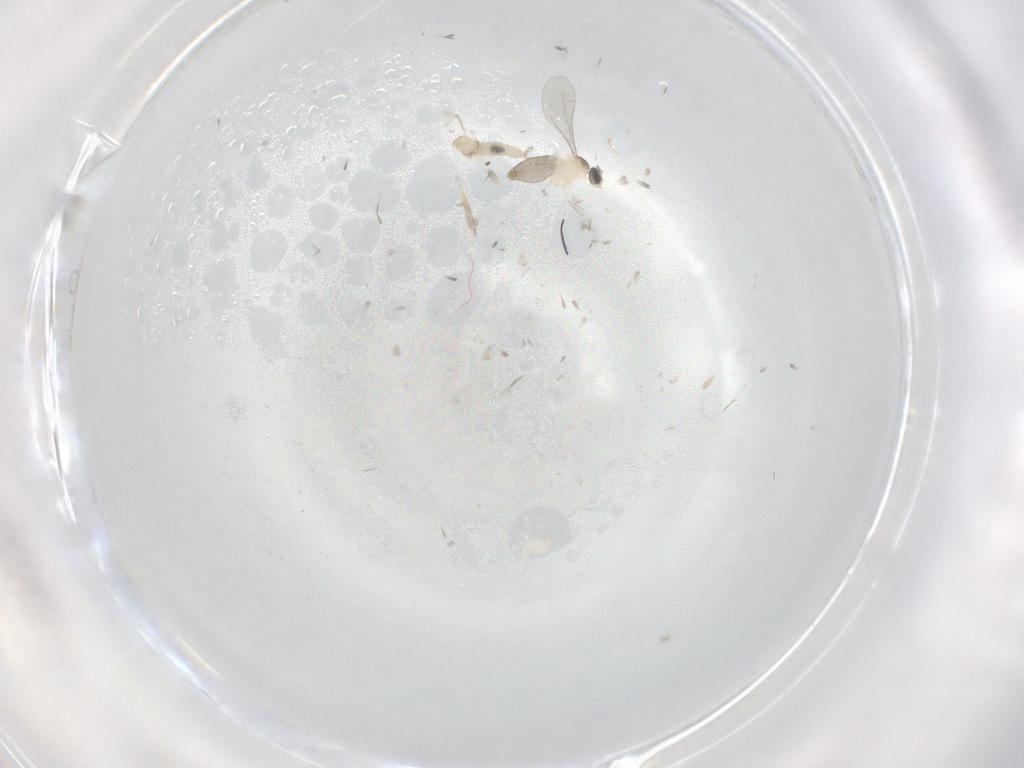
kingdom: Animalia
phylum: Arthropoda
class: Insecta
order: Diptera
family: Cecidomyiidae
